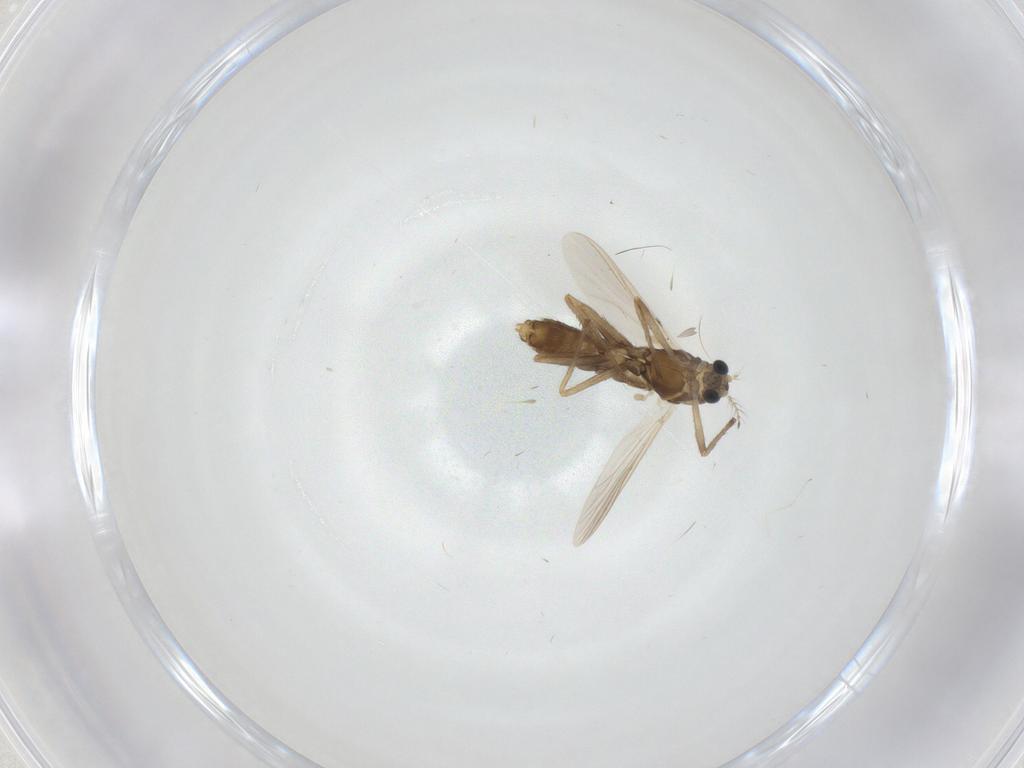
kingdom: Animalia
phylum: Arthropoda
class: Insecta
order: Diptera
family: Chironomidae
